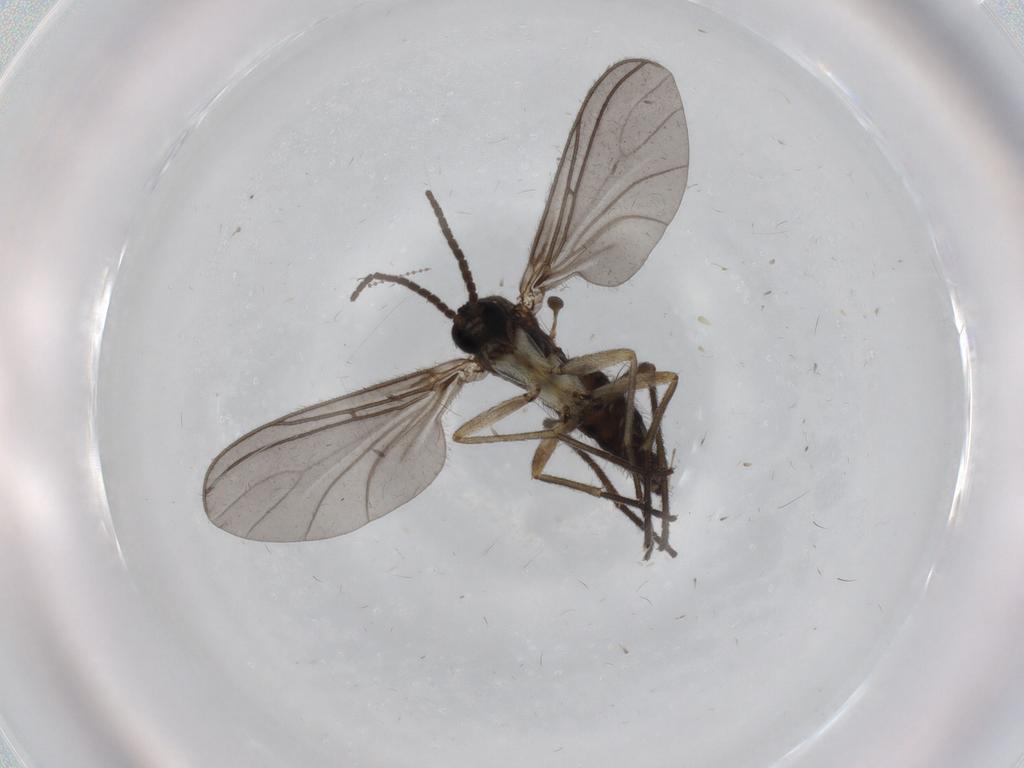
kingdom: Animalia
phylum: Arthropoda
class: Insecta
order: Diptera
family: Sciaridae
